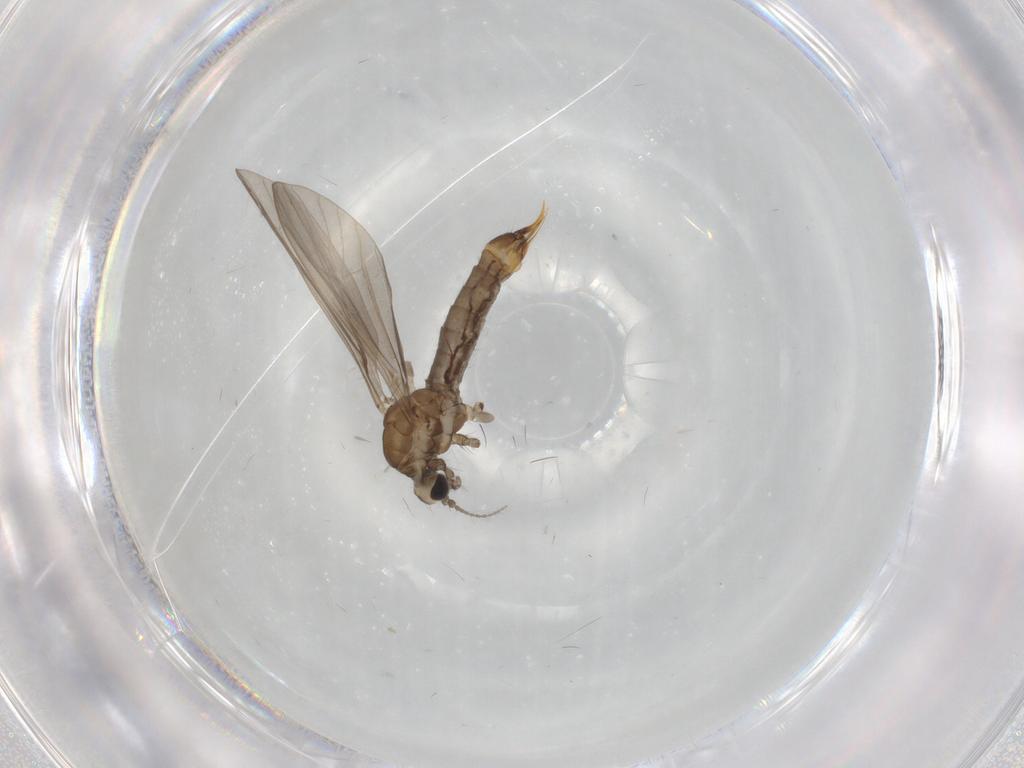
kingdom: Animalia
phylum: Arthropoda
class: Insecta
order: Diptera
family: Limoniidae
